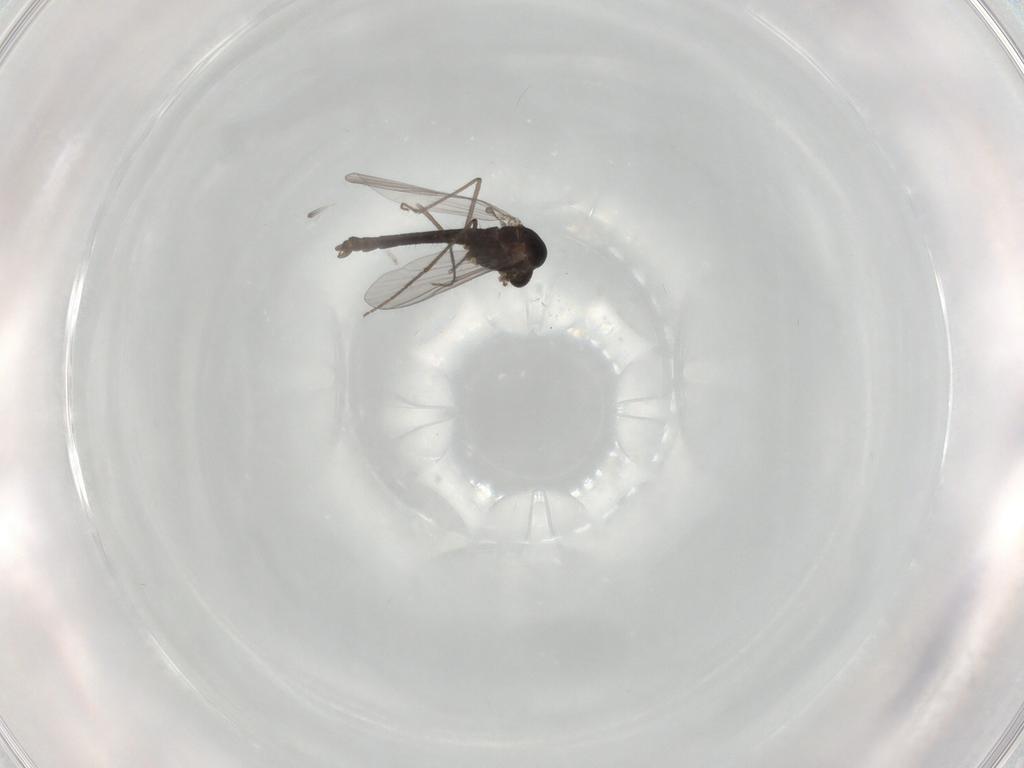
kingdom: Animalia
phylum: Arthropoda
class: Insecta
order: Diptera
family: Chironomidae
